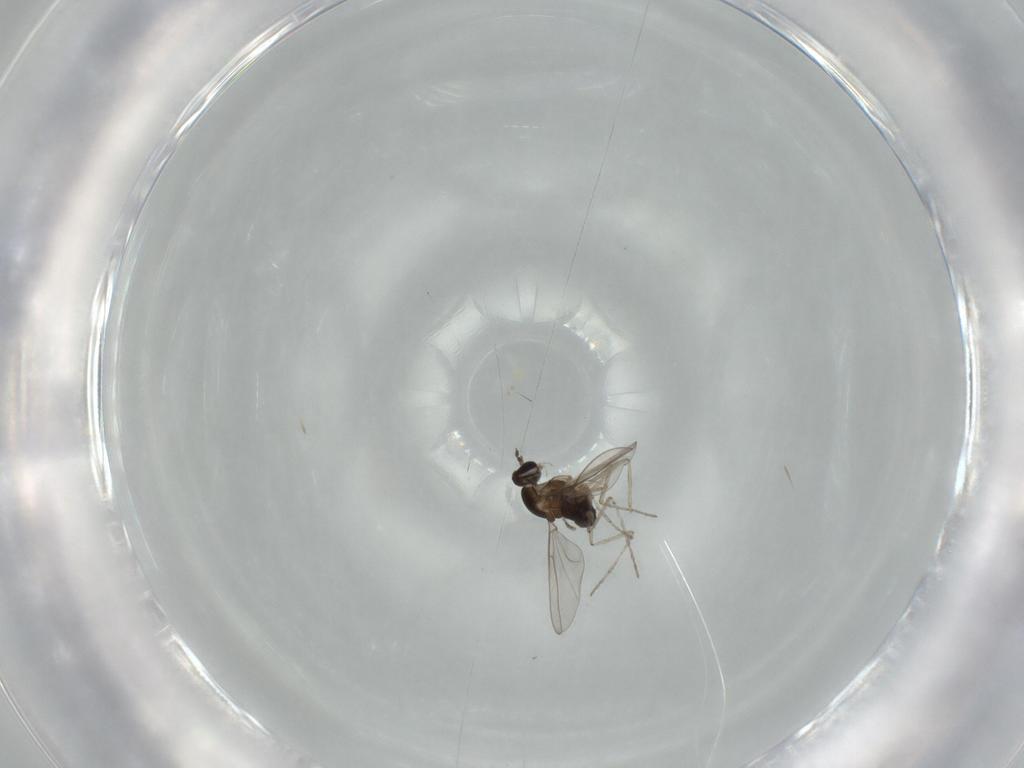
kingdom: Animalia
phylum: Arthropoda
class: Insecta
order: Diptera
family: Cecidomyiidae
